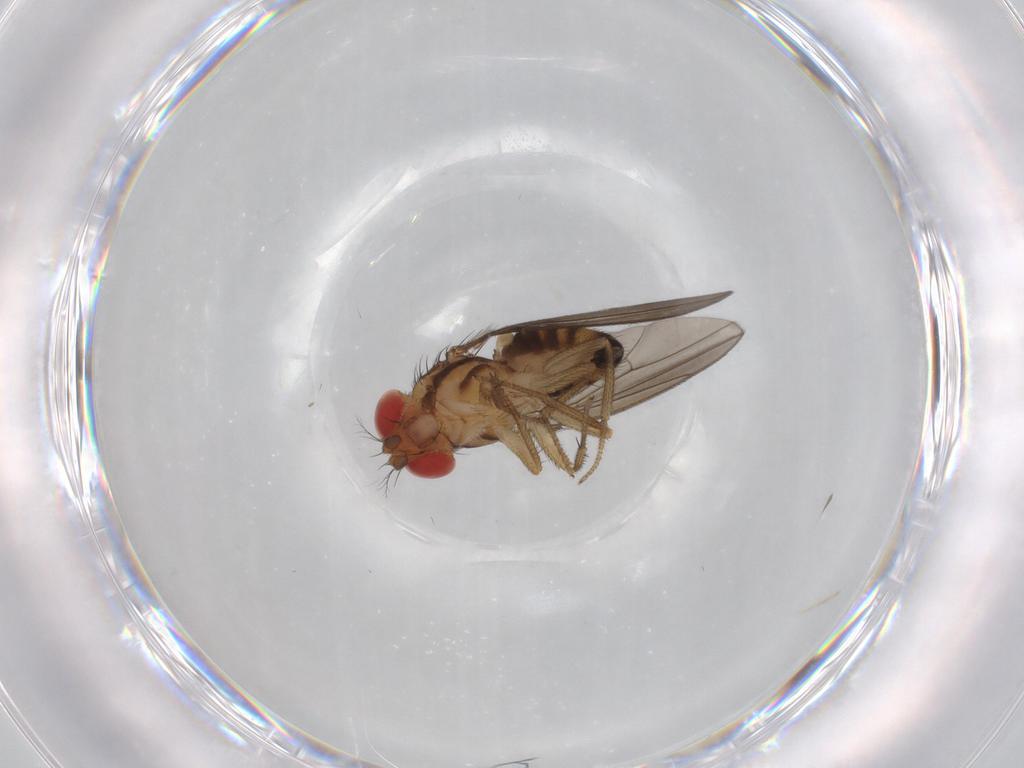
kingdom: Animalia
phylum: Arthropoda
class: Insecta
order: Diptera
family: Drosophilidae
